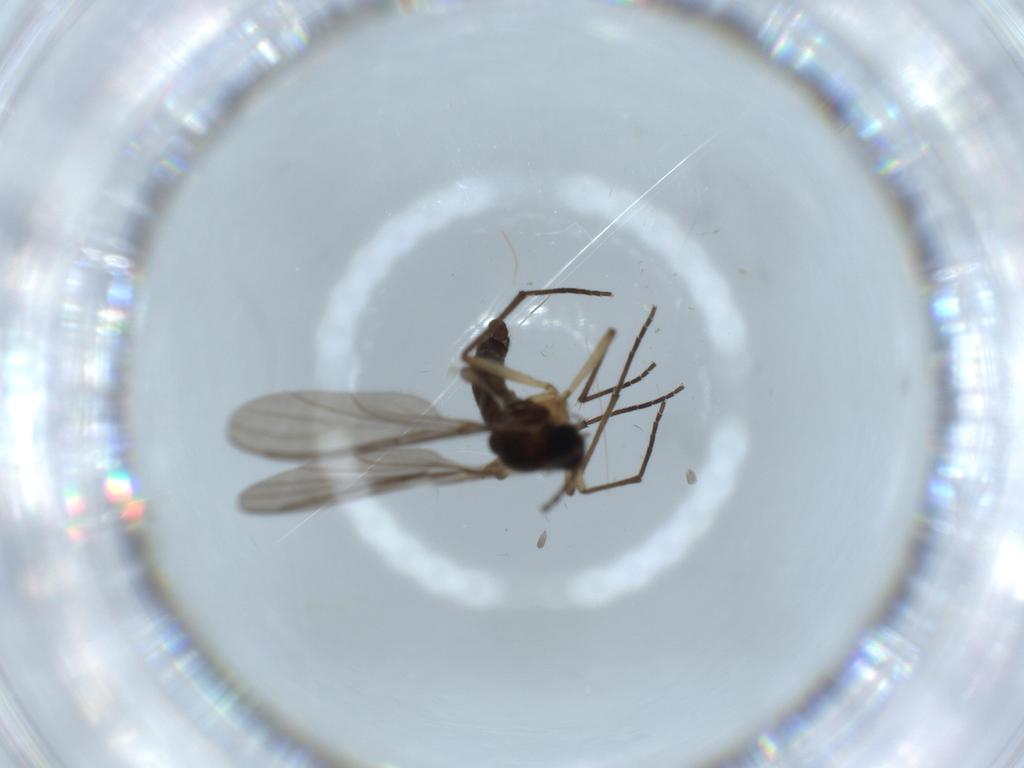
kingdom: Animalia
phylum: Arthropoda
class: Insecta
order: Diptera
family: Sciaridae
